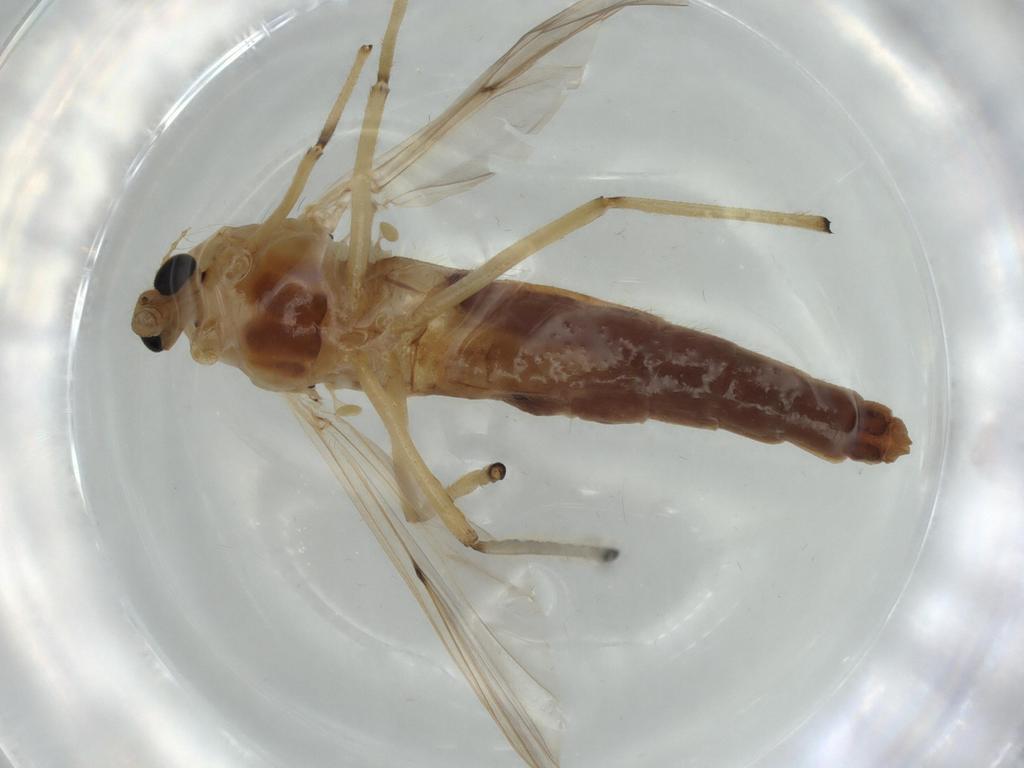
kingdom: Animalia
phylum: Arthropoda
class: Insecta
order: Diptera
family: Chironomidae
